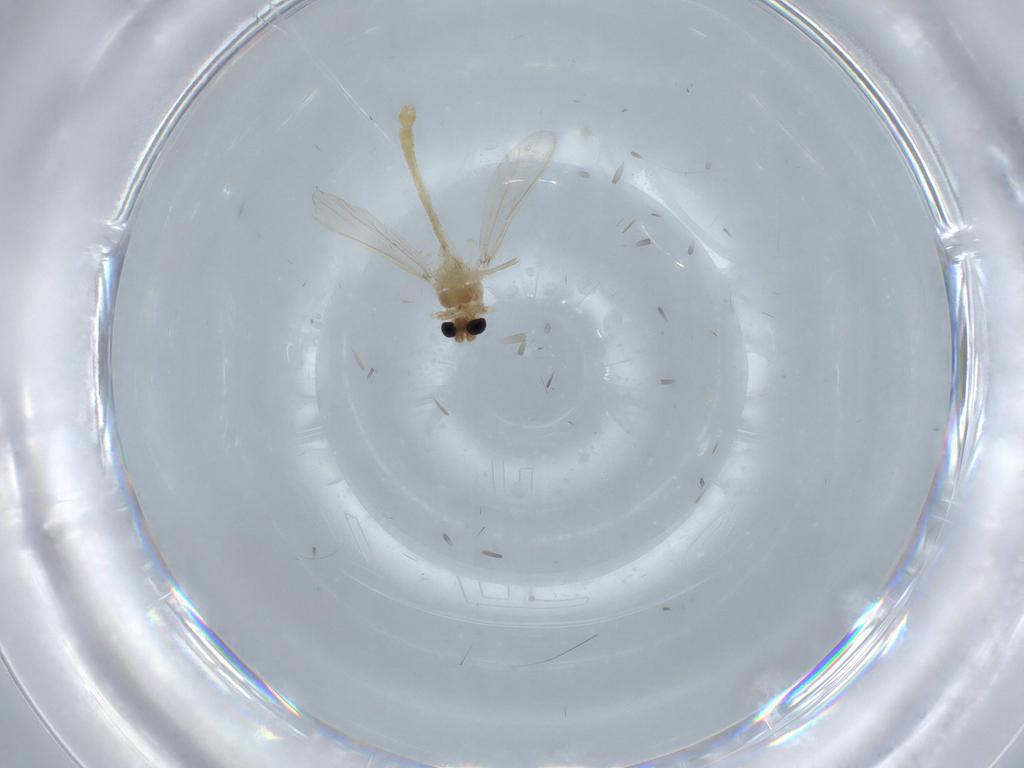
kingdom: Animalia
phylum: Arthropoda
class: Insecta
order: Diptera
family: Chironomidae
